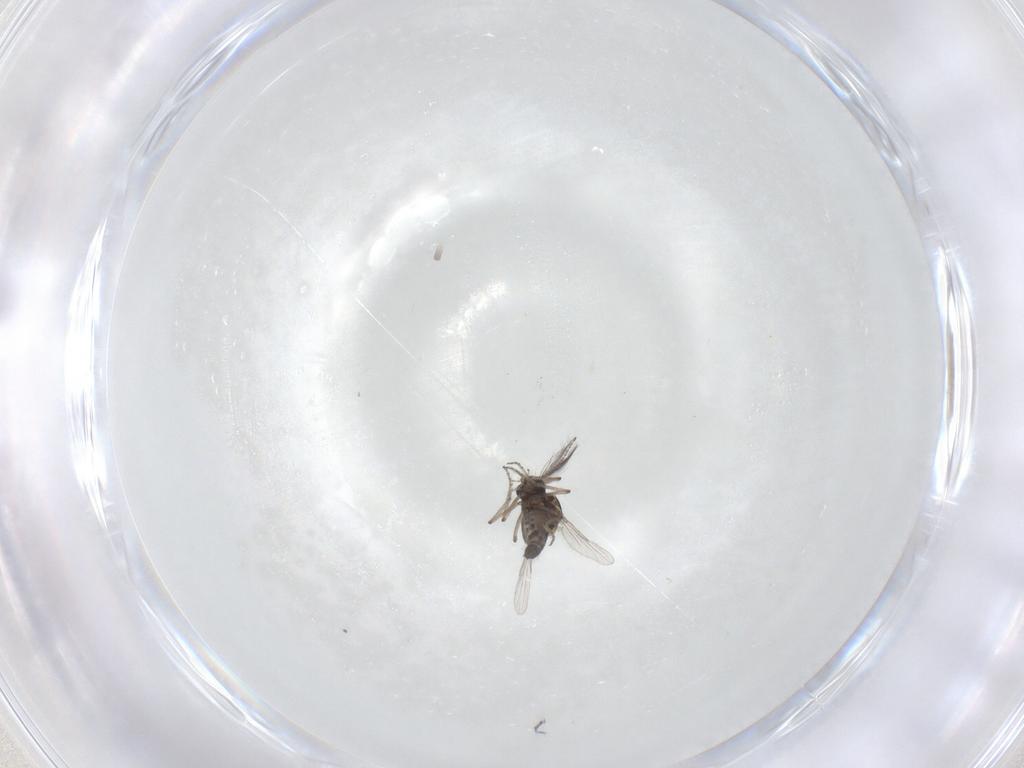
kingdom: Animalia
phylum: Arthropoda
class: Insecta
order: Diptera
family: Ceratopogonidae
